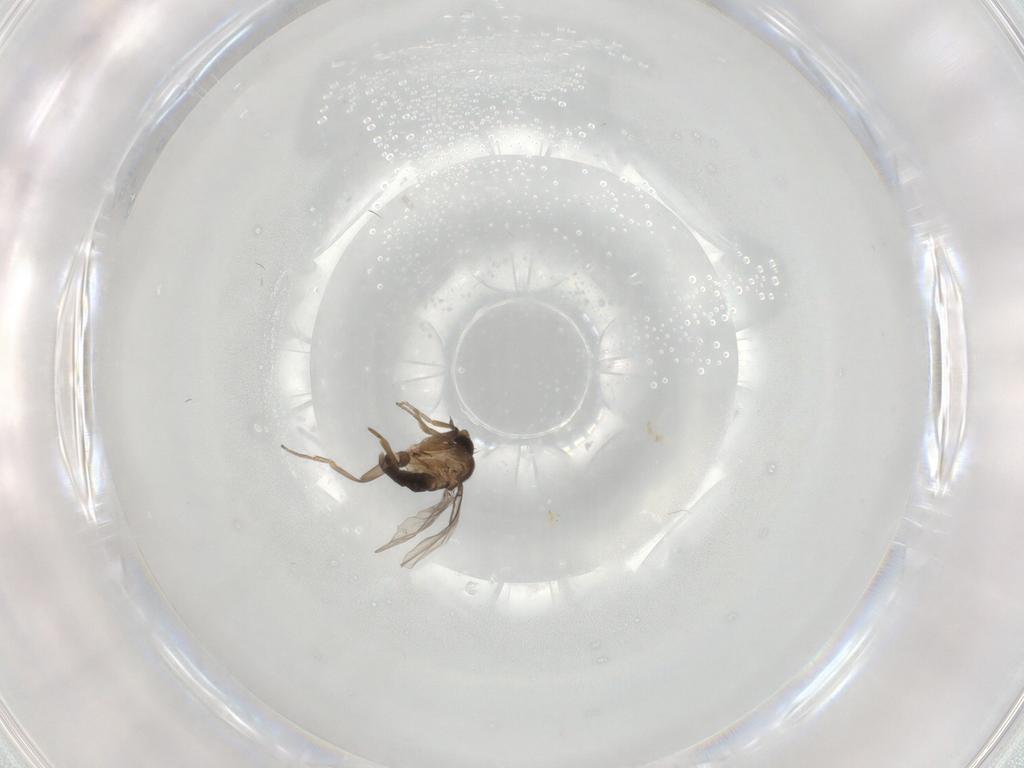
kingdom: Animalia
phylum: Arthropoda
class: Insecta
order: Diptera
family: Phoridae
